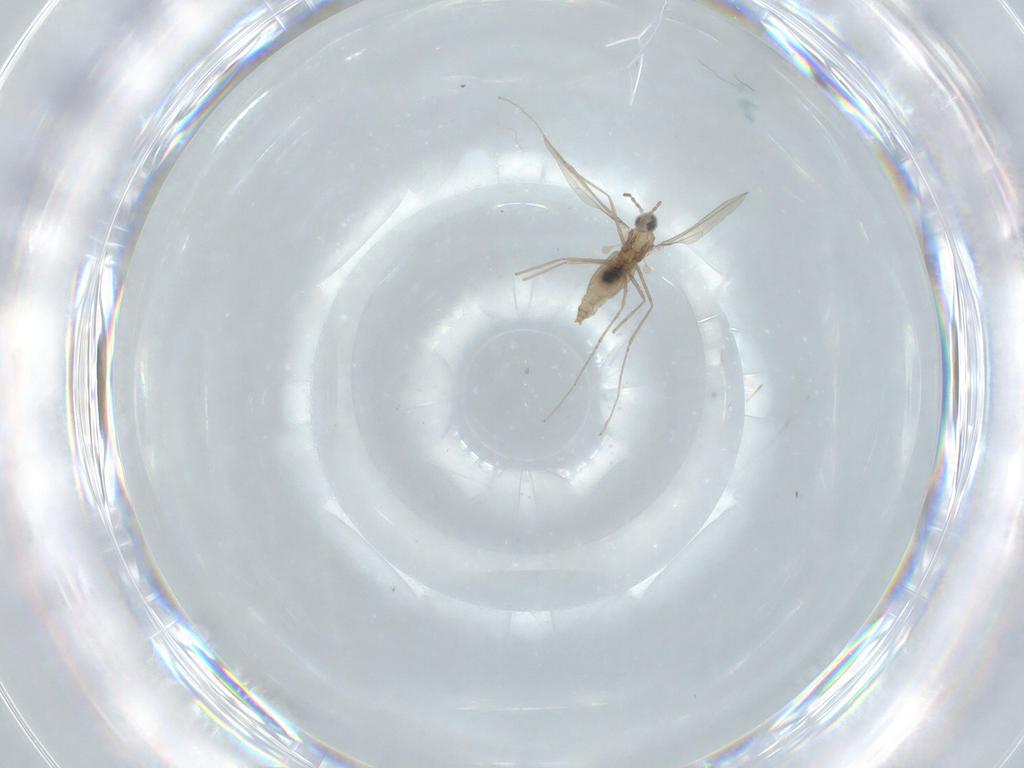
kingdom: Animalia
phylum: Arthropoda
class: Insecta
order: Diptera
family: Cecidomyiidae
